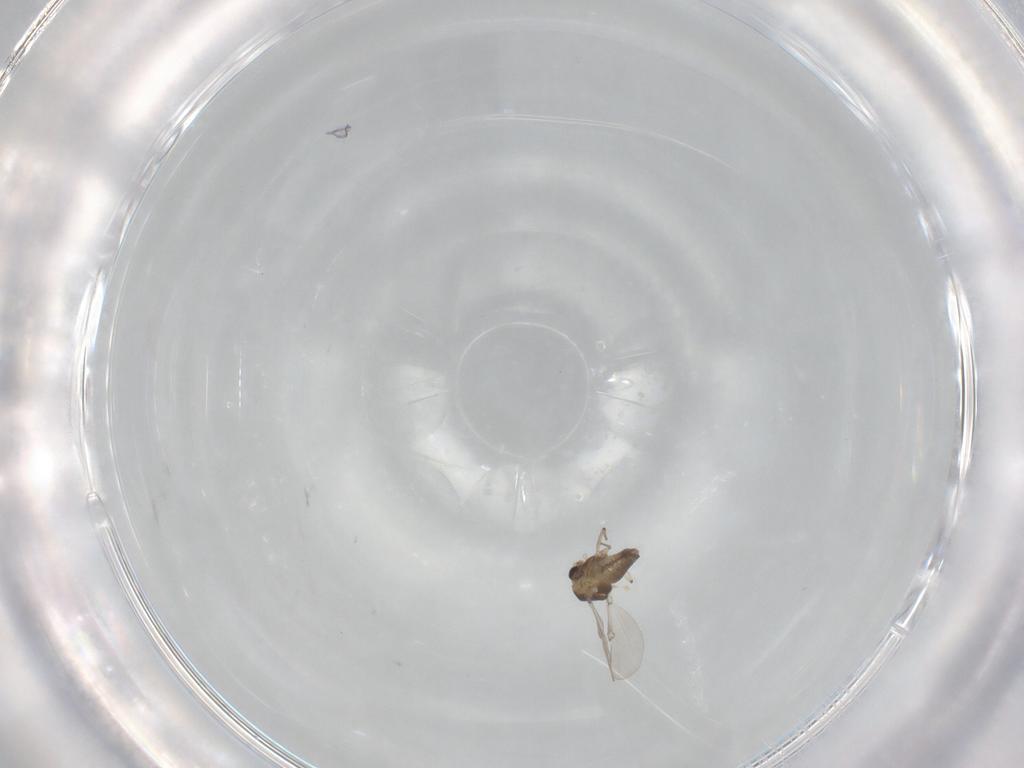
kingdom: Animalia
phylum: Arthropoda
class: Insecta
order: Diptera
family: Chironomidae
